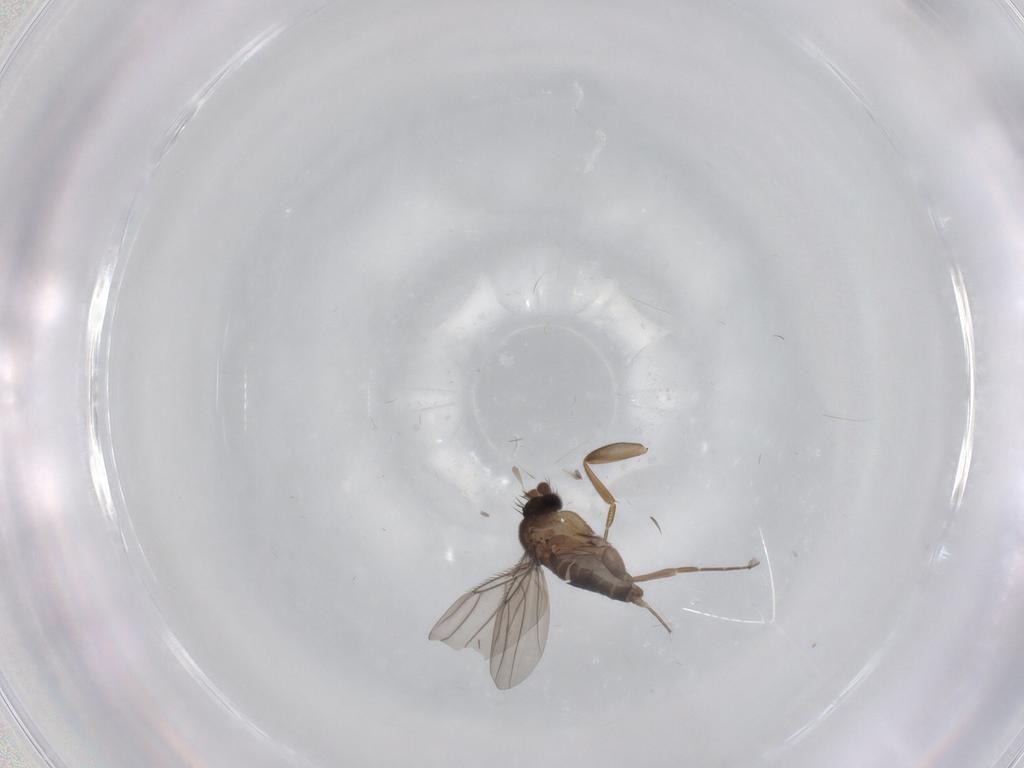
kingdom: Animalia
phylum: Arthropoda
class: Insecta
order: Diptera
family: Phoridae
